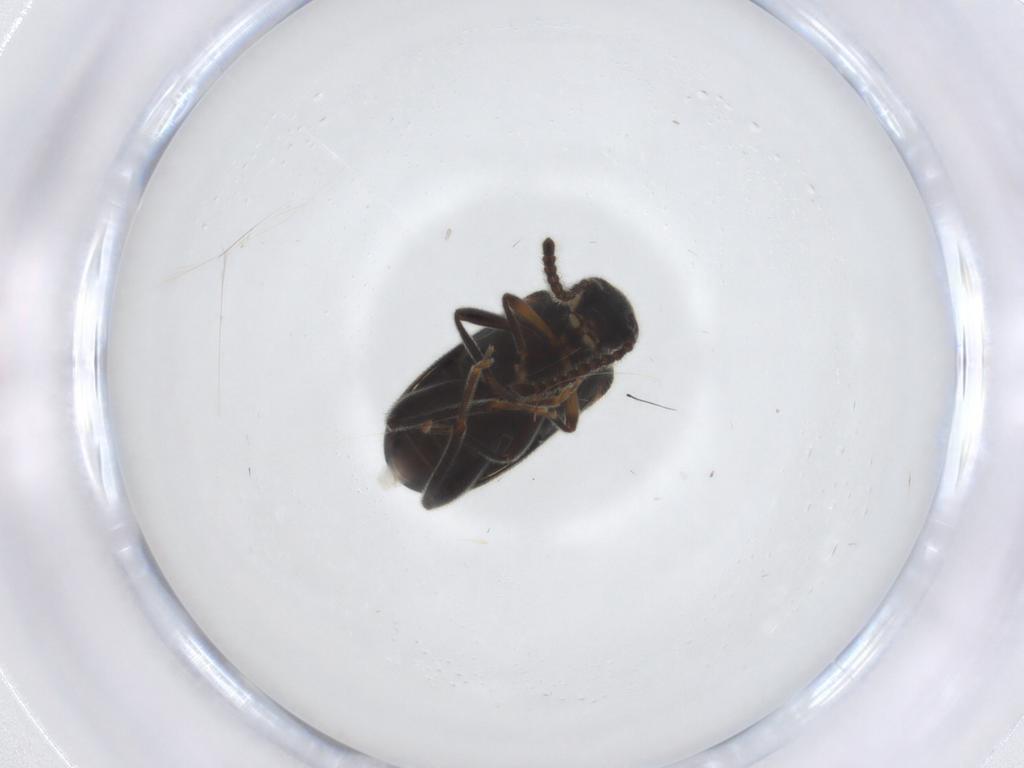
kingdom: Animalia
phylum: Arthropoda
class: Insecta
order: Coleoptera
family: Aderidae
